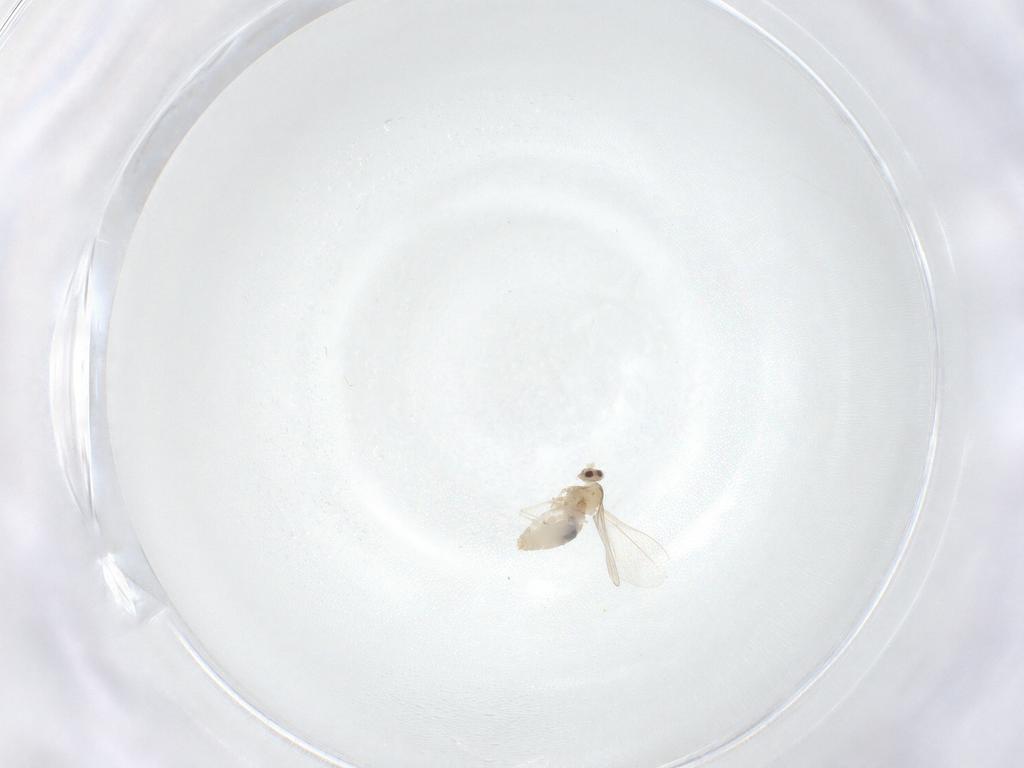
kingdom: Animalia
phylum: Arthropoda
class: Insecta
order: Diptera
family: Cecidomyiidae
